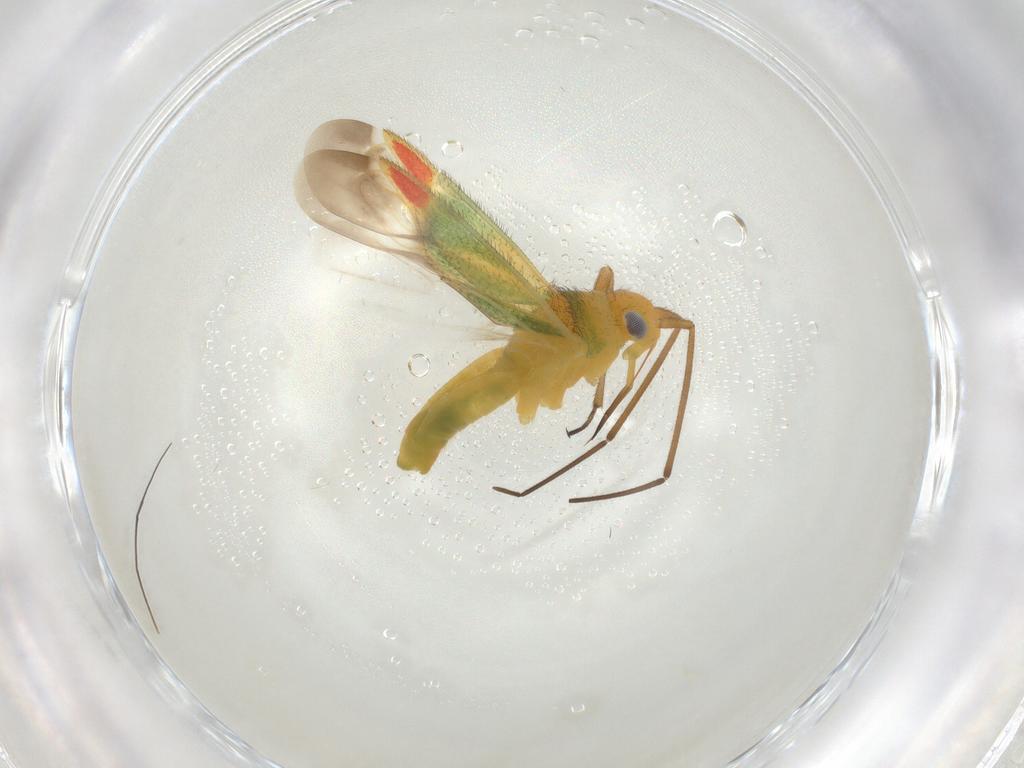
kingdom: Animalia
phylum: Arthropoda
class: Insecta
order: Hemiptera
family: Aphididae
